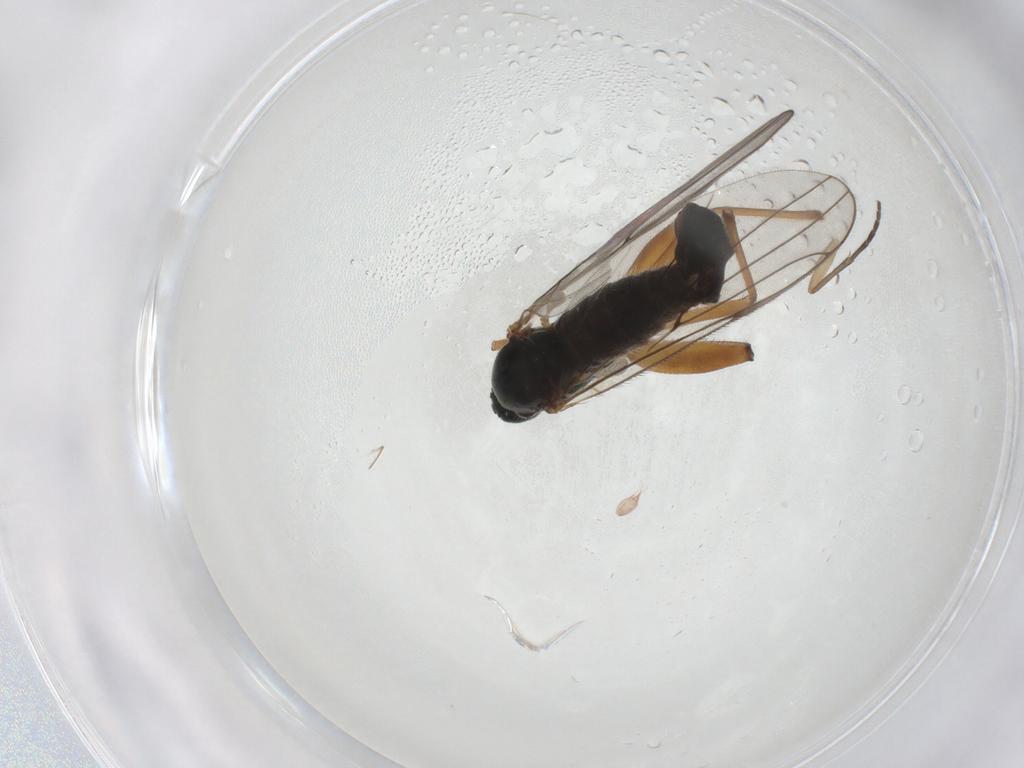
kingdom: Animalia
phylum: Arthropoda
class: Insecta
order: Diptera
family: Hybotidae
